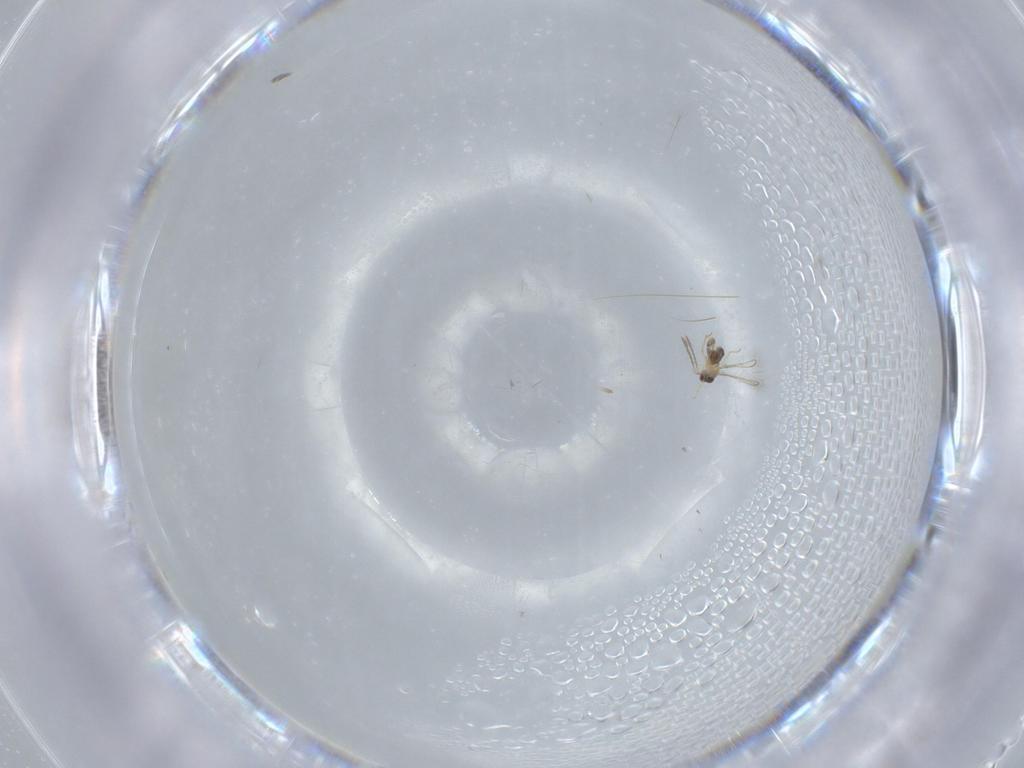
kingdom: Animalia
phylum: Arthropoda
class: Insecta
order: Hymenoptera
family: Mymaridae
